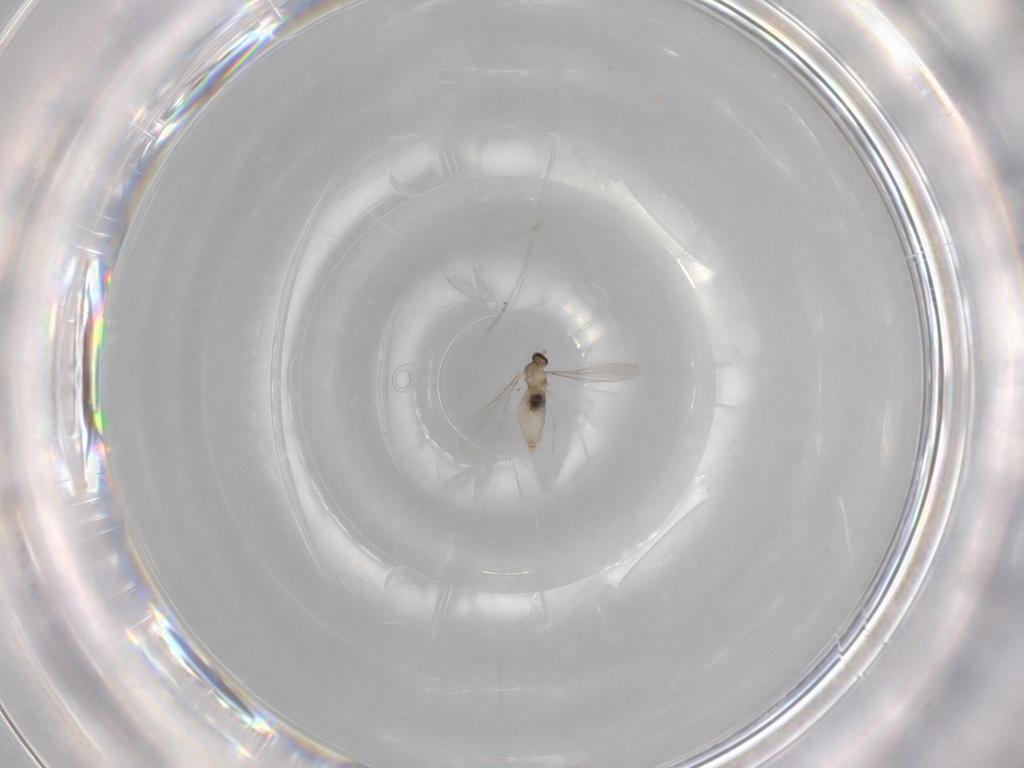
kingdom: Animalia
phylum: Arthropoda
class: Insecta
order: Diptera
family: Cecidomyiidae
